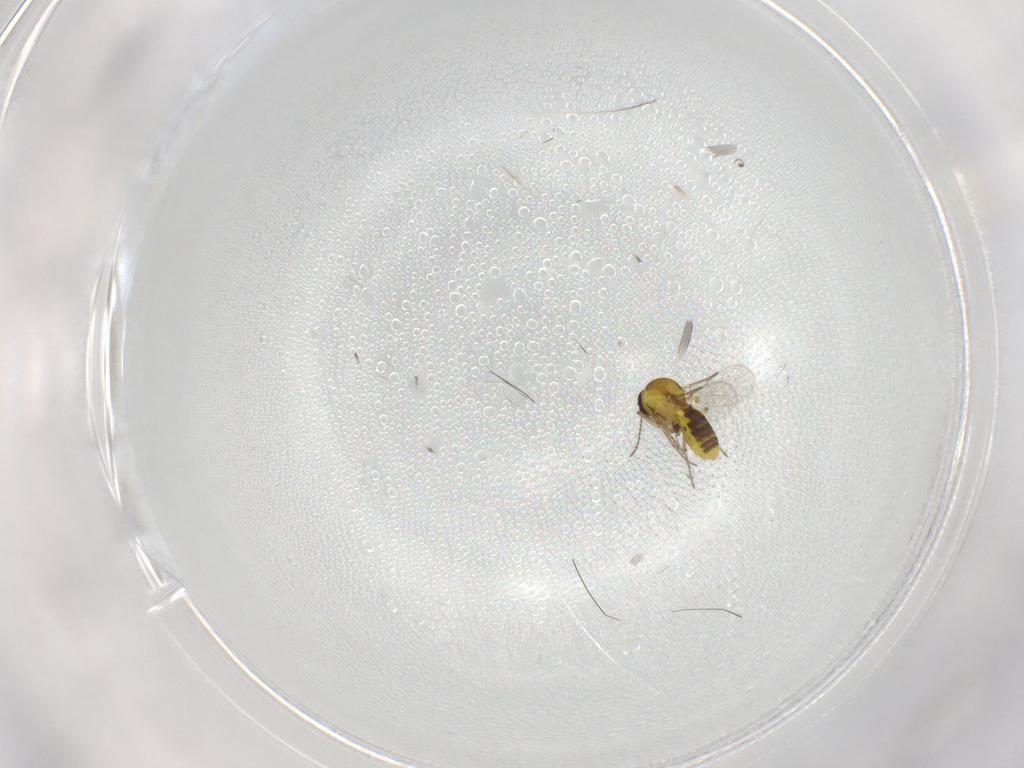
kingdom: Animalia
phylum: Arthropoda
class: Insecta
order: Diptera
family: Ceratopogonidae
